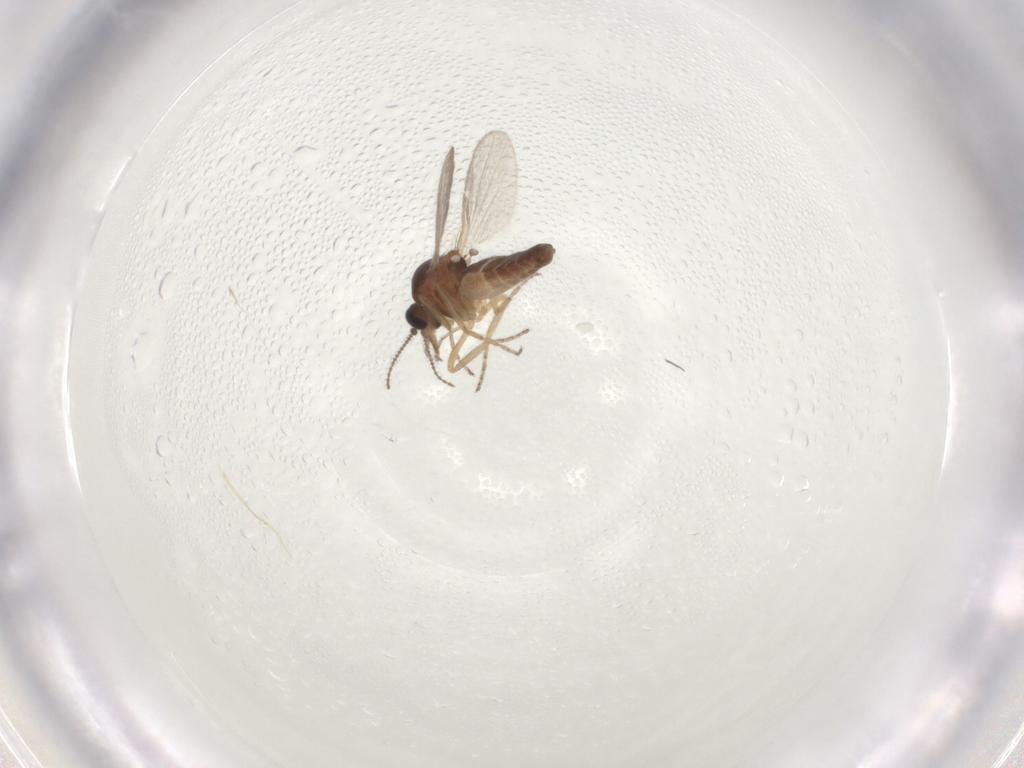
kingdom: Animalia
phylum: Arthropoda
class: Insecta
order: Diptera
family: Ceratopogonidae
